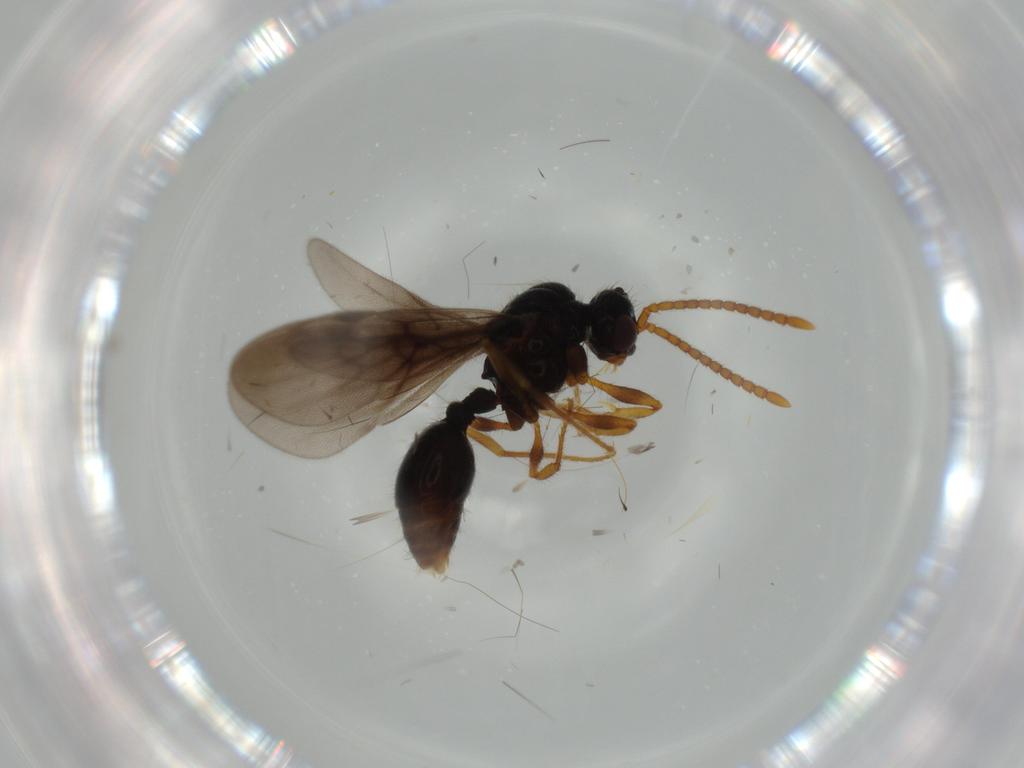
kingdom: Animalia
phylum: Arthropoda
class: Insecta
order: Hymenoptera
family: Formicidae
